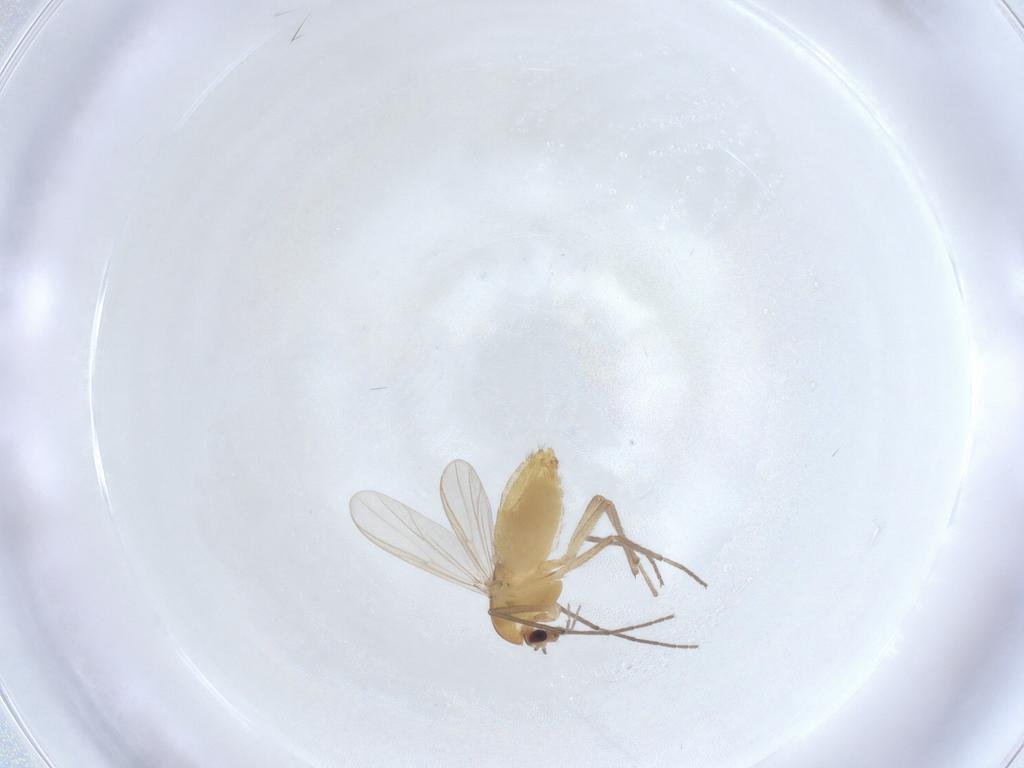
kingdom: Animalia
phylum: Arthropoda
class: Insecta
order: Diptera
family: Chironomidae
